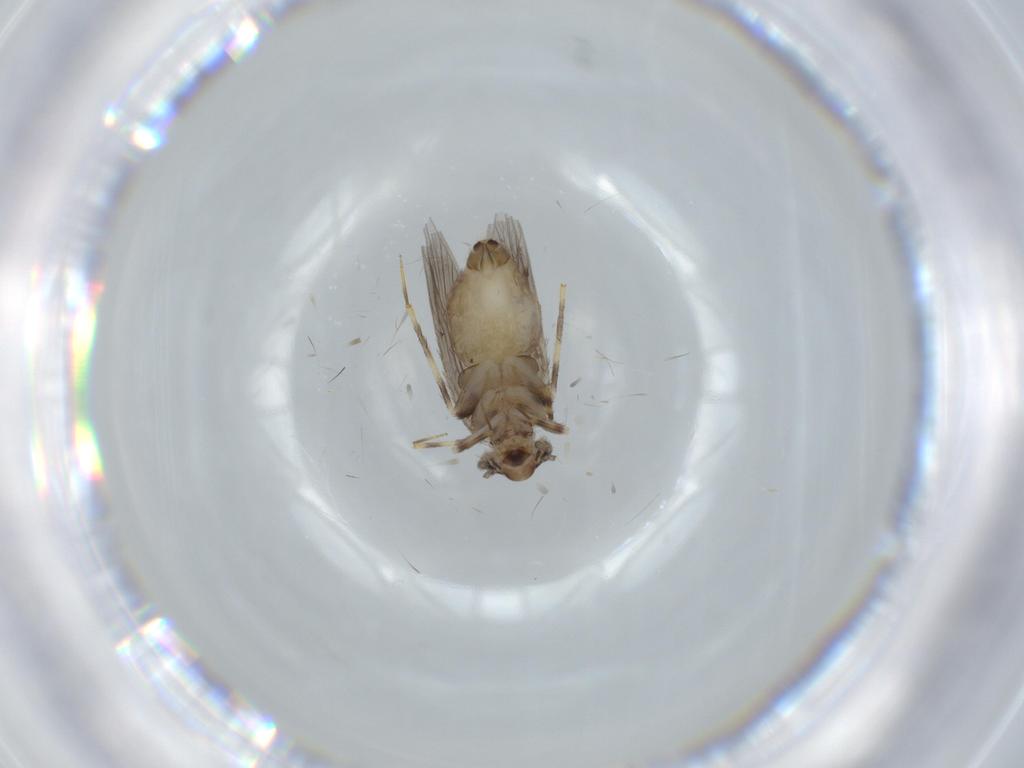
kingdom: Animalia
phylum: Arthropoda
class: Insecta
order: Psocodea
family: Lepidopsocidae
